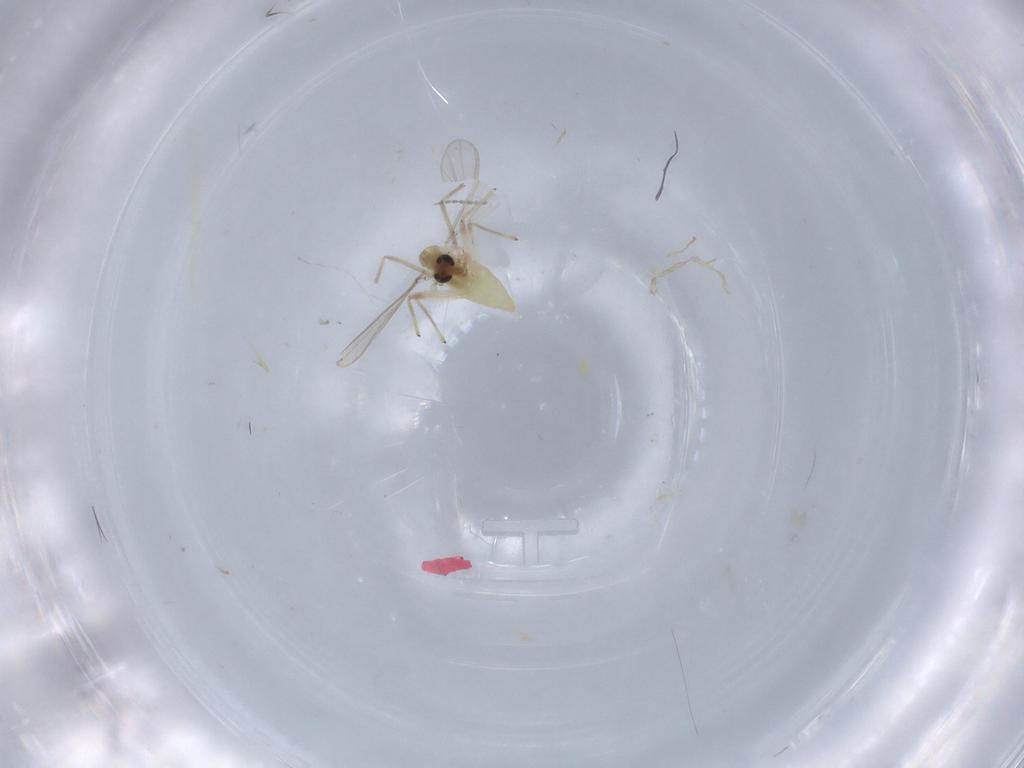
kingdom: Animalia
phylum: Arthropoda
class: Insecta
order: Diptera
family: Chironomidae
